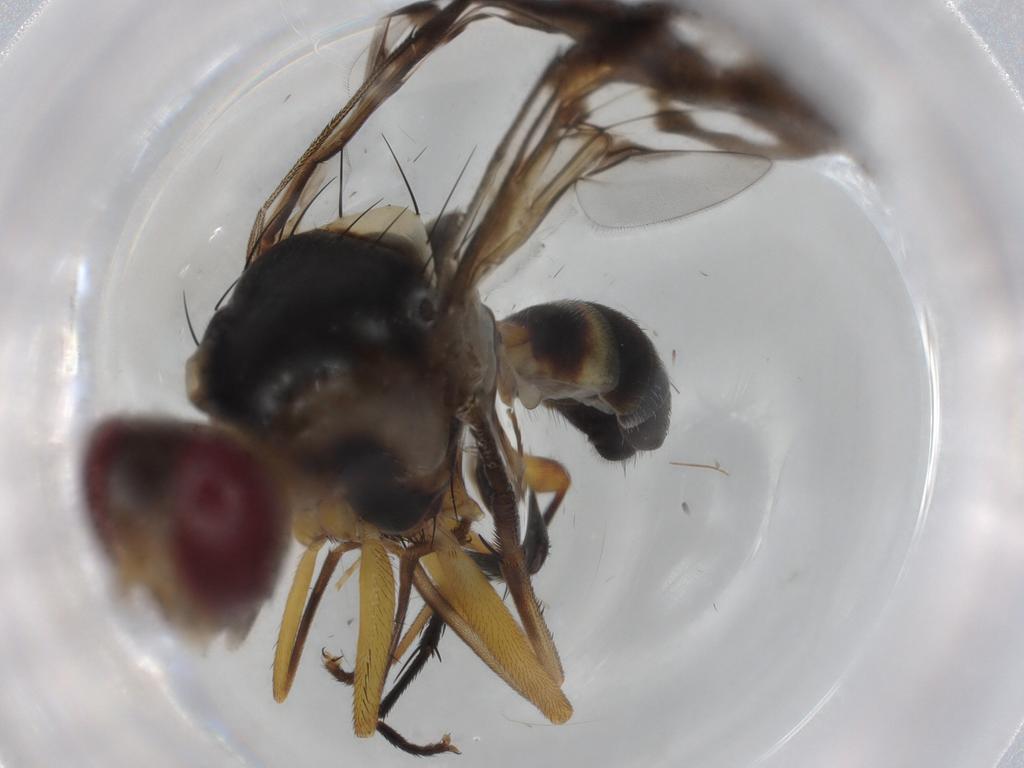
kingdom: Animalia
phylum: Arthropoda
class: Insecta
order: Diptera
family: Tephritidae
